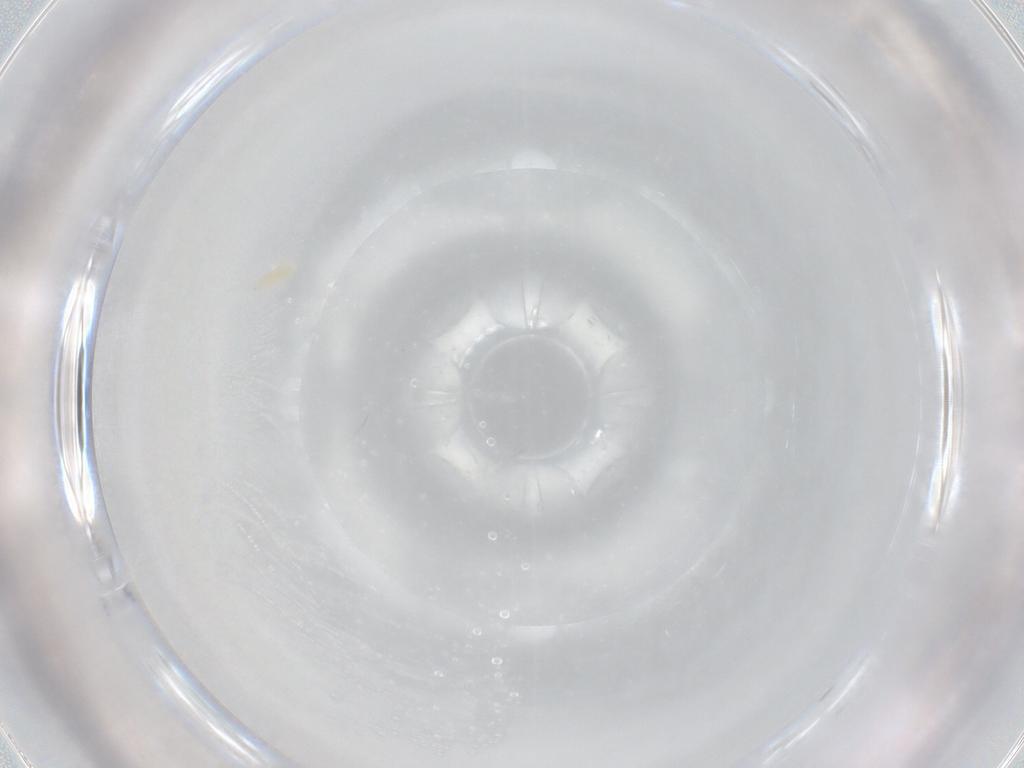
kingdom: Animalia
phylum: Arthropoda
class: Arachnida
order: Trombidiformes
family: Eupodidae
